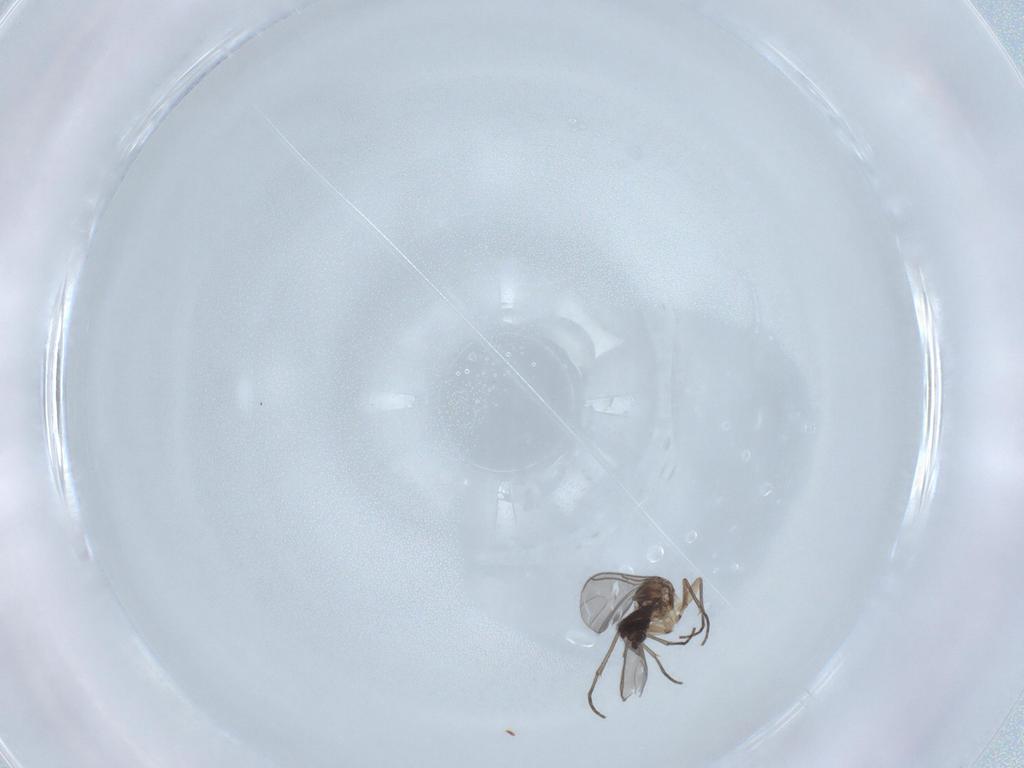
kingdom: Animalia
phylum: Arthropoda
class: Insecta
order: Diptera
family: Sciaridae
